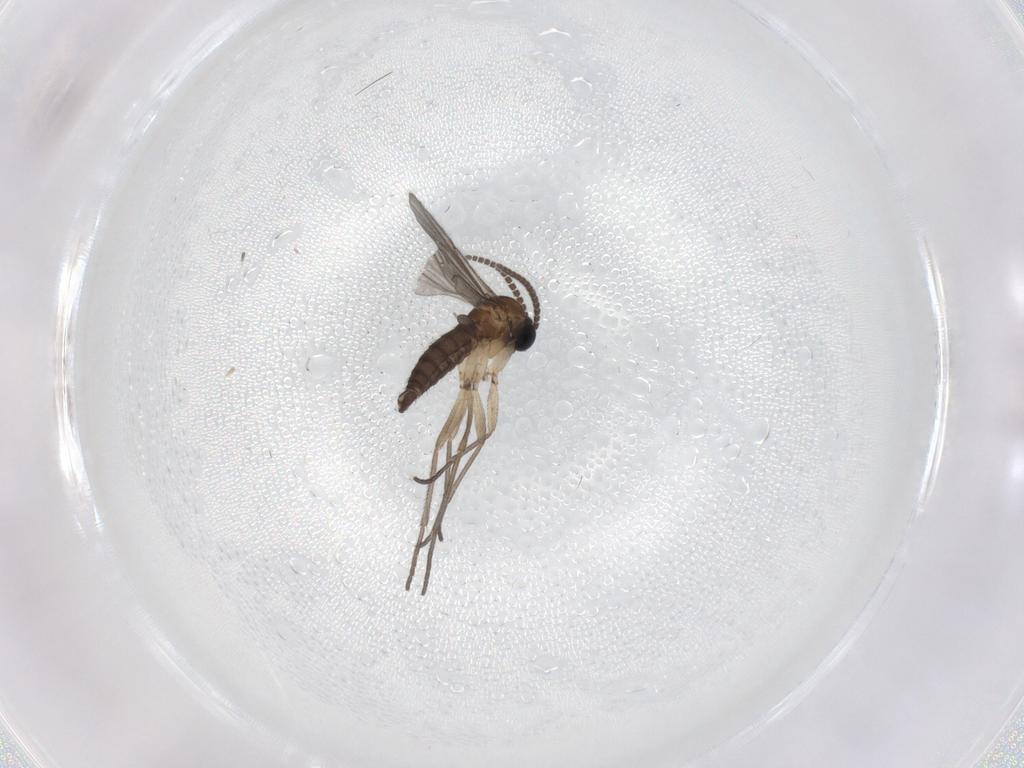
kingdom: Animalia
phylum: Arthropoda
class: Insecta
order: Diptera
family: Sciaridae
